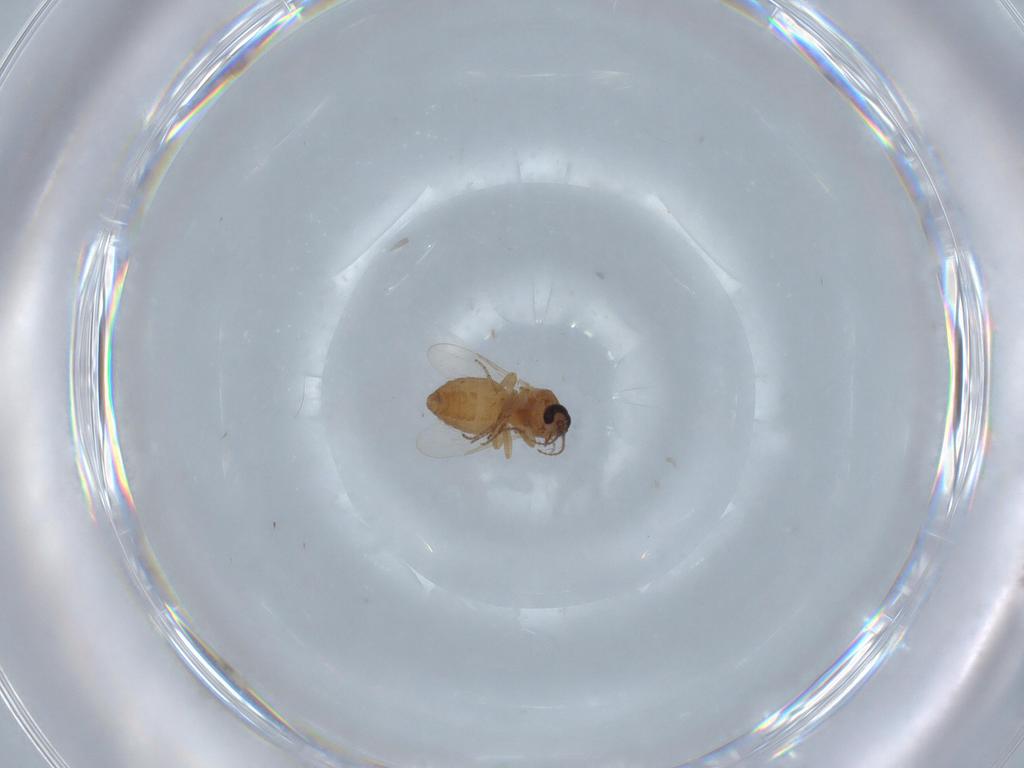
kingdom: Animalia
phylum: Arthropoda
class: Insecta
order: Diptera
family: Ceratopogonidae
